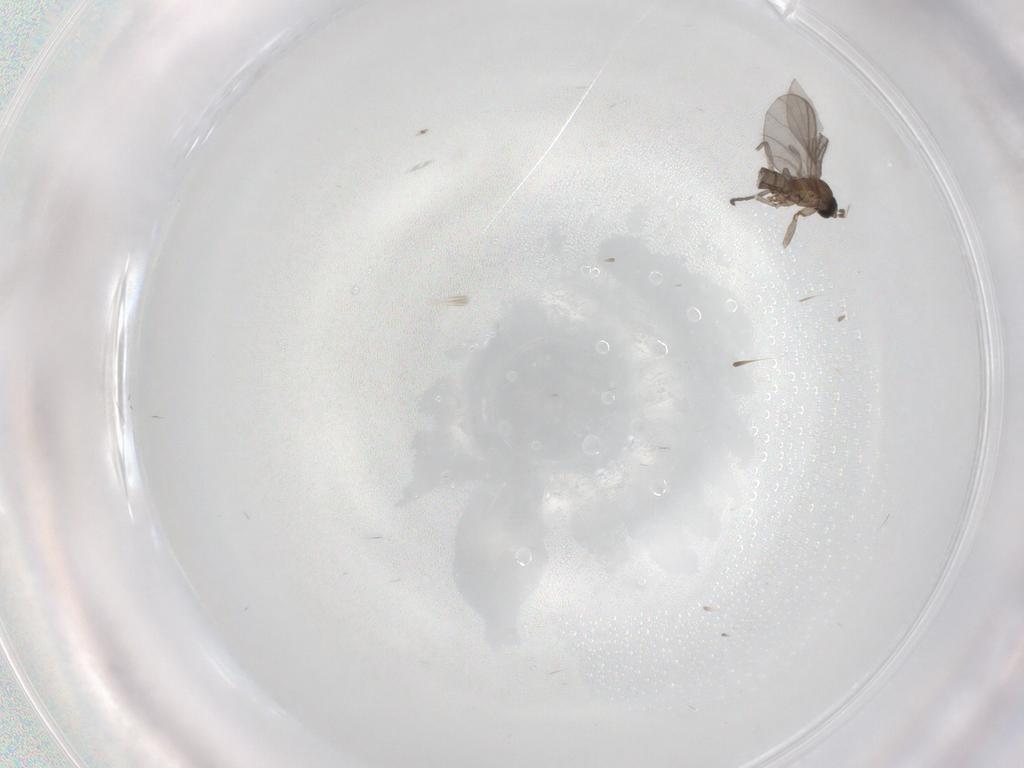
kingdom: Animalia
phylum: Arthropoda
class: Insecta
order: Diptera
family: Sciaridae
